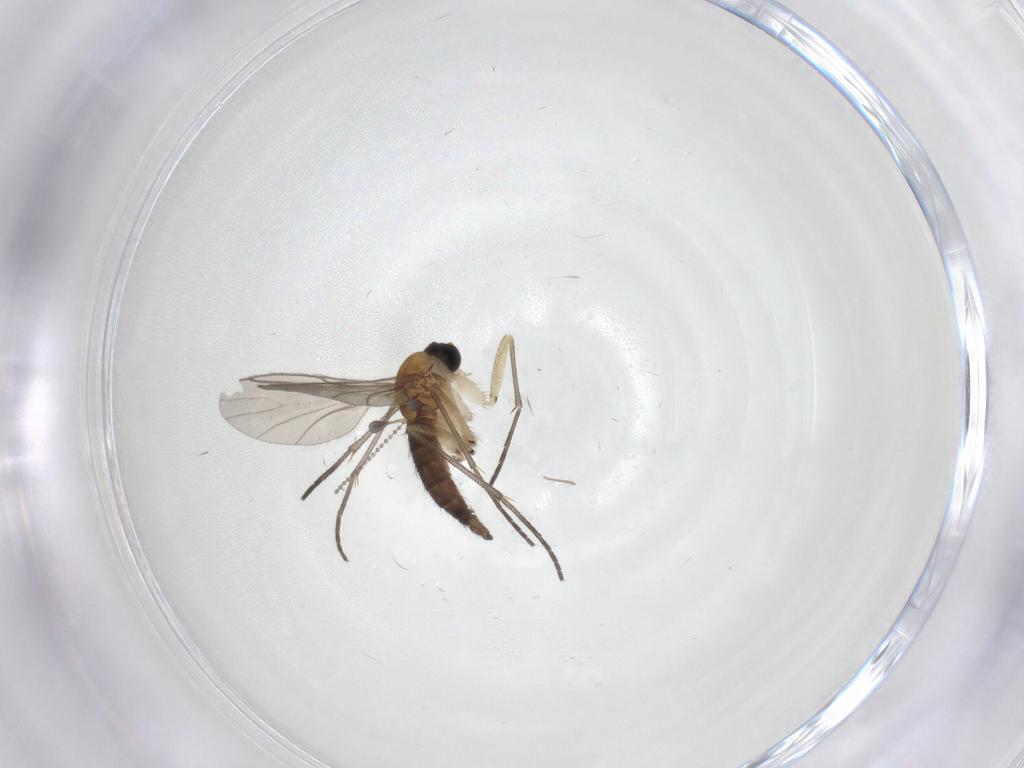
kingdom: Animalia
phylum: Arthropoda
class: Insecta
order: Diptera
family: Sciaridae
